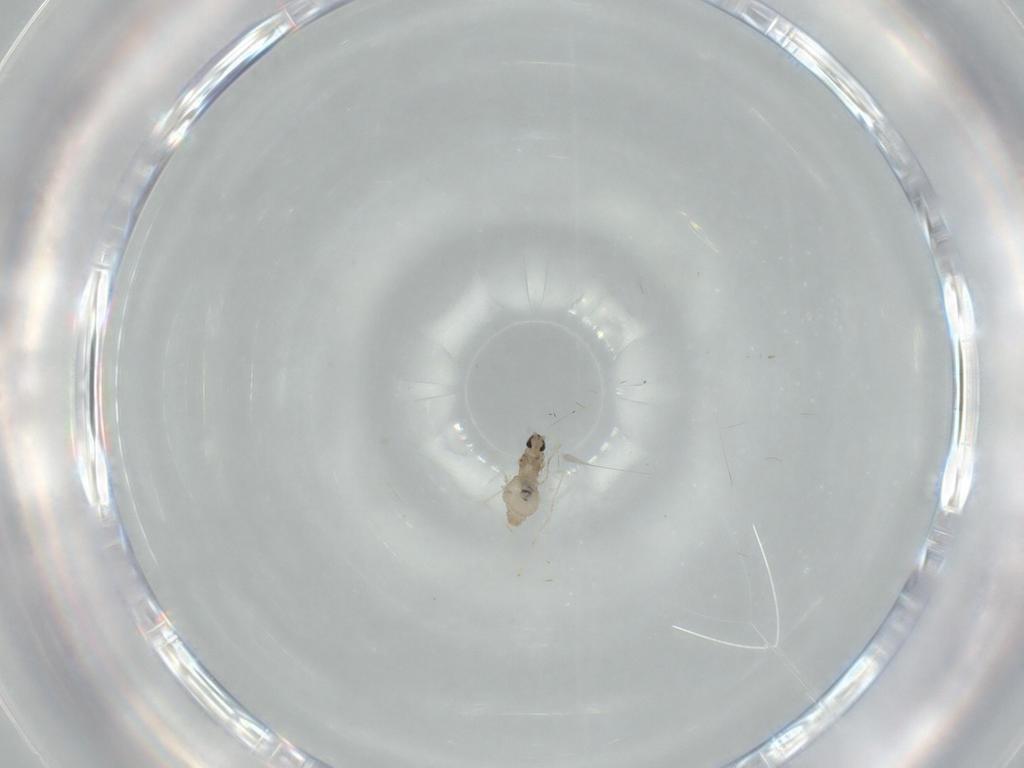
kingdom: Animalia
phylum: Arthropoda
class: Insecta
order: Diptera
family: Cecidomyiidae
